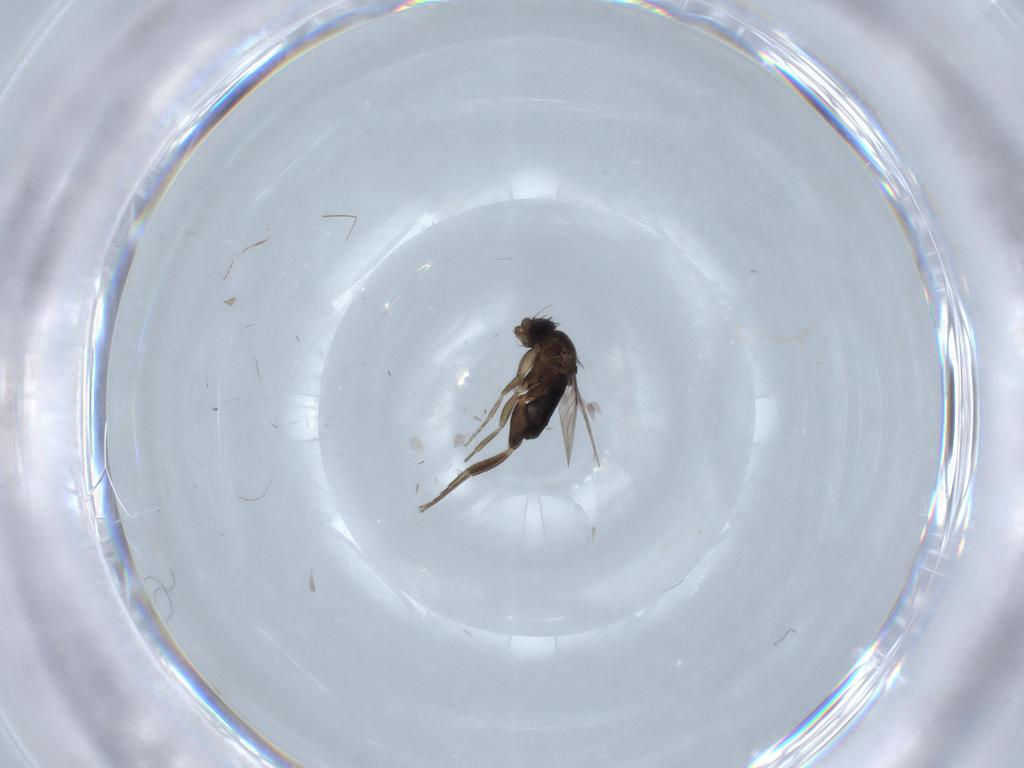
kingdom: Animalia
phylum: Arthropoda
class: Insecta
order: Diptera
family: Phoridae
